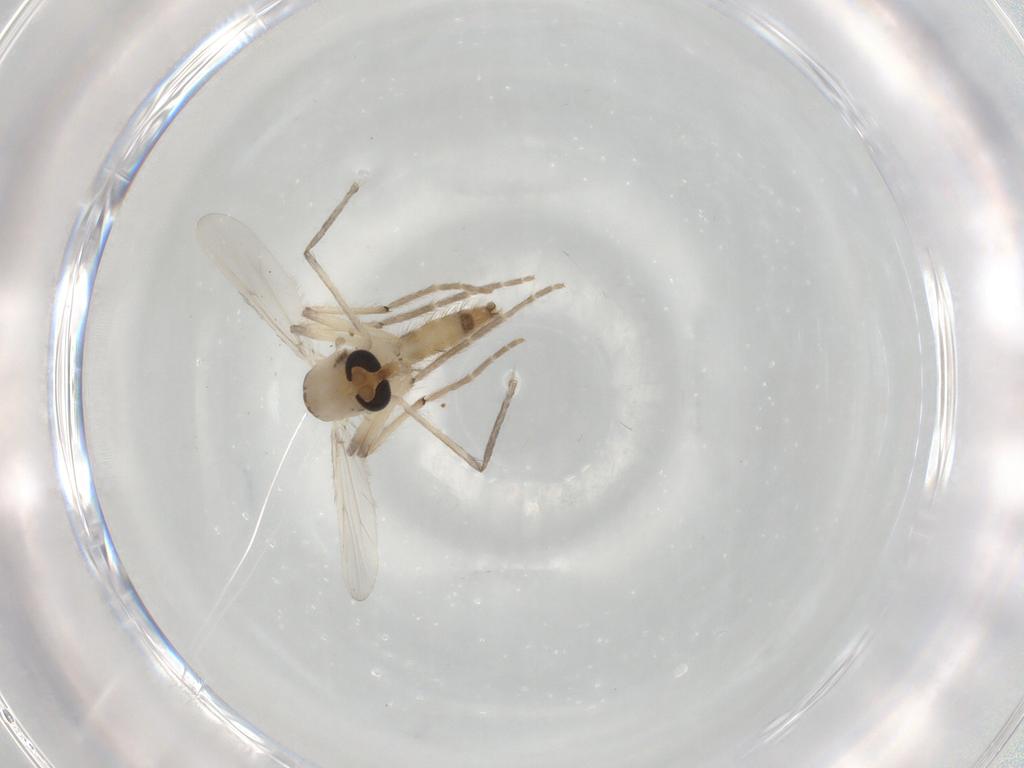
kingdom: Animalia
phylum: Arthropoda
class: Insecta
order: Diptera
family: Chironomidae
